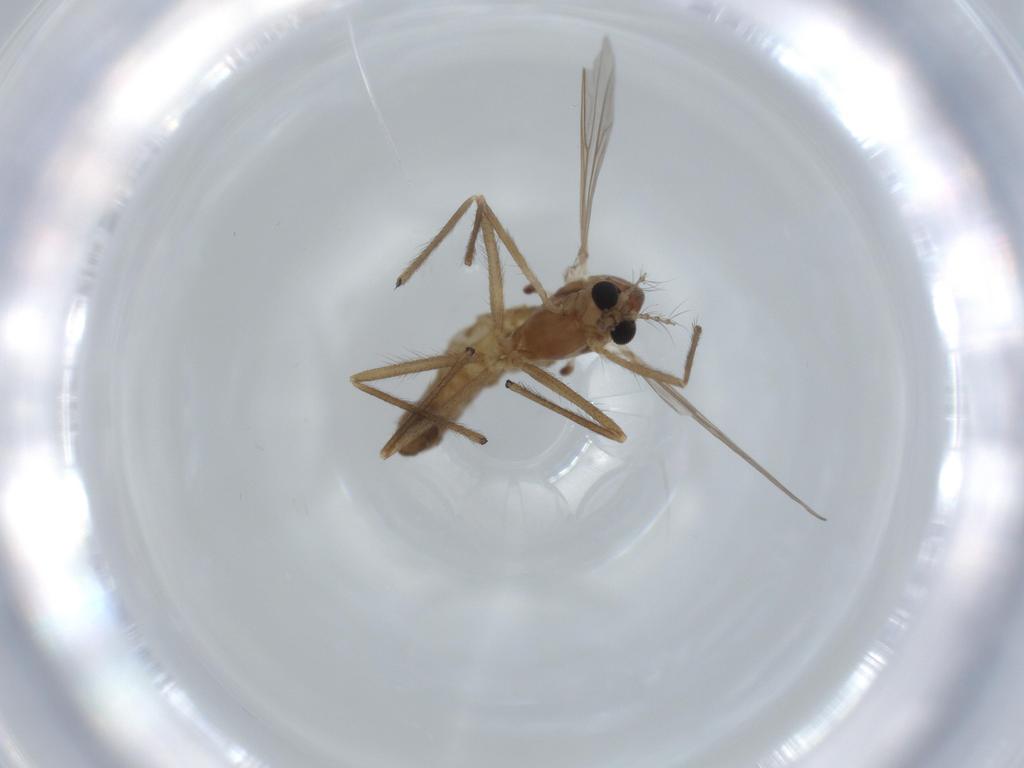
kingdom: Animalia
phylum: Arthropoda
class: Insecta
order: Diptera
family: Chironomidae
